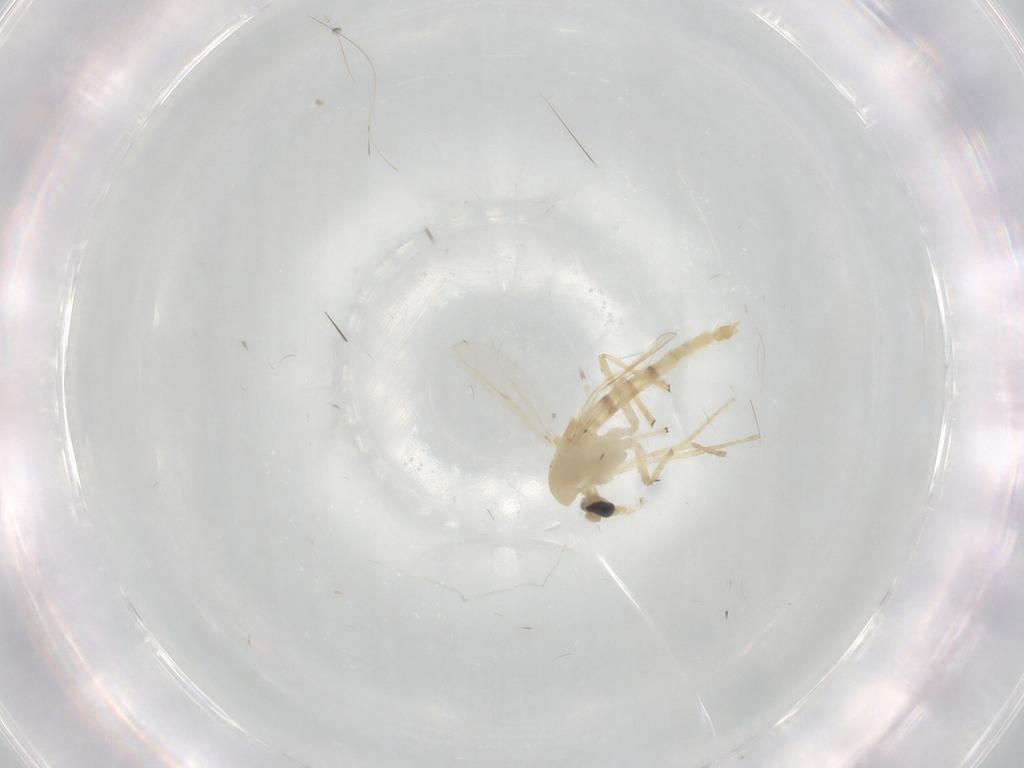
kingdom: Animalia
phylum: Arthropoda
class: Insecta
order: Diptera
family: Chironomidae
